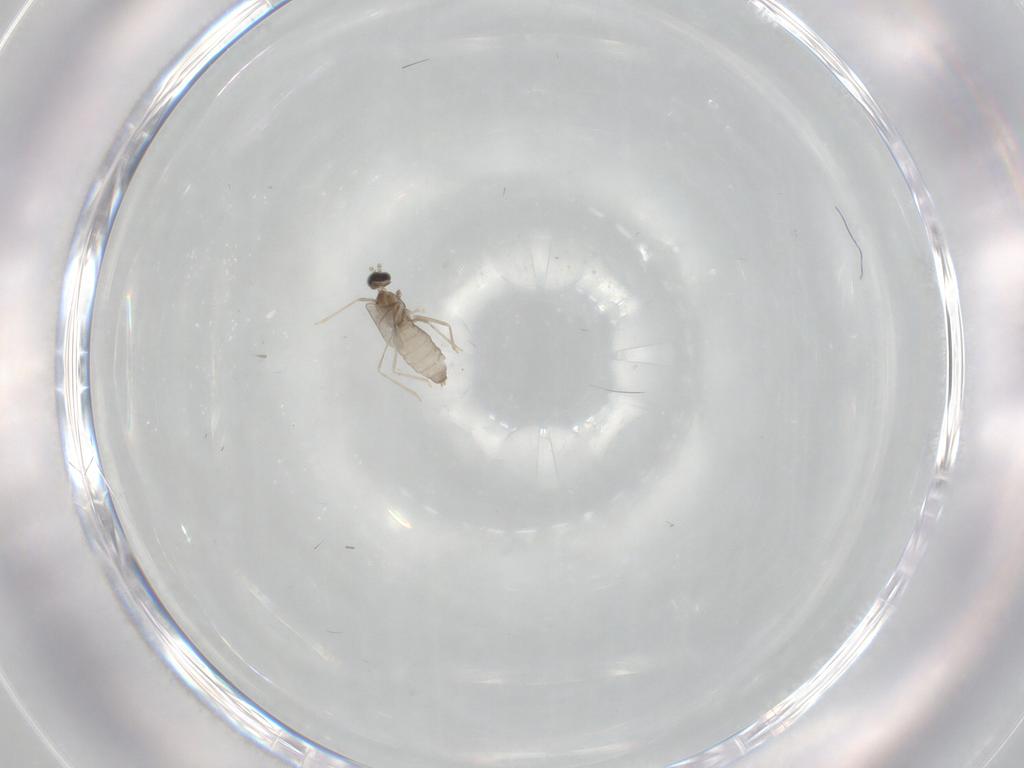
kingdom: Animalia
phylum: Arthropoda
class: Insecta
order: Diptera
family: Cecidomyiidae
